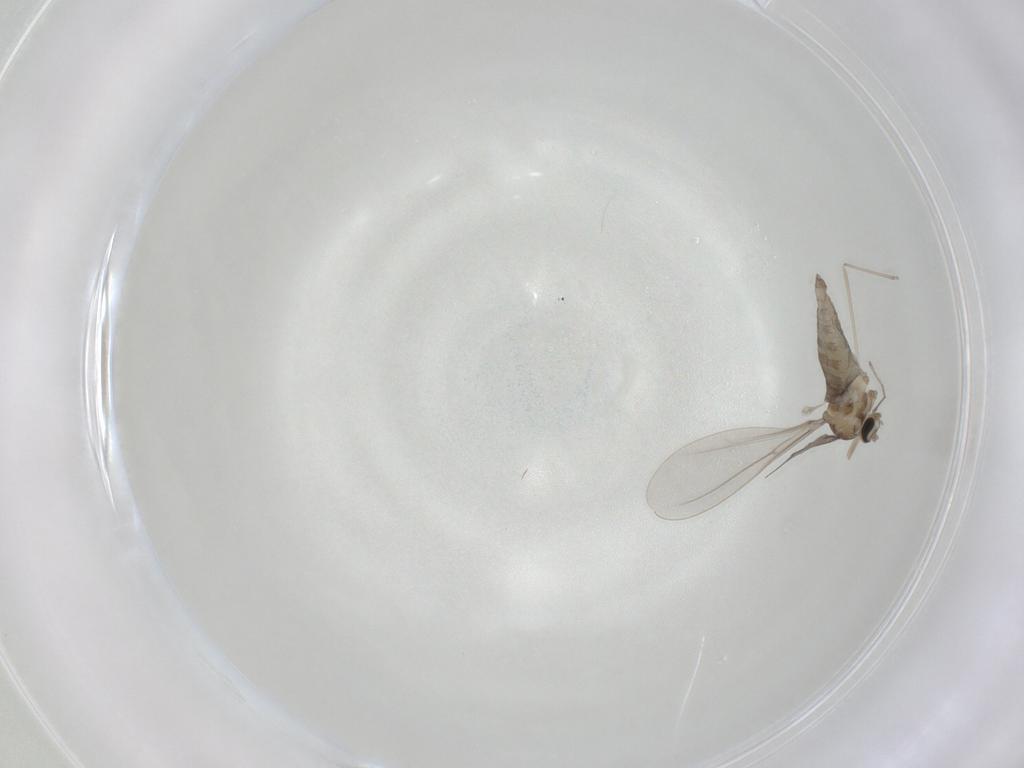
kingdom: Animalia
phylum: Arthropoda
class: Insecta
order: Diptera
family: Cecidomyiidae
